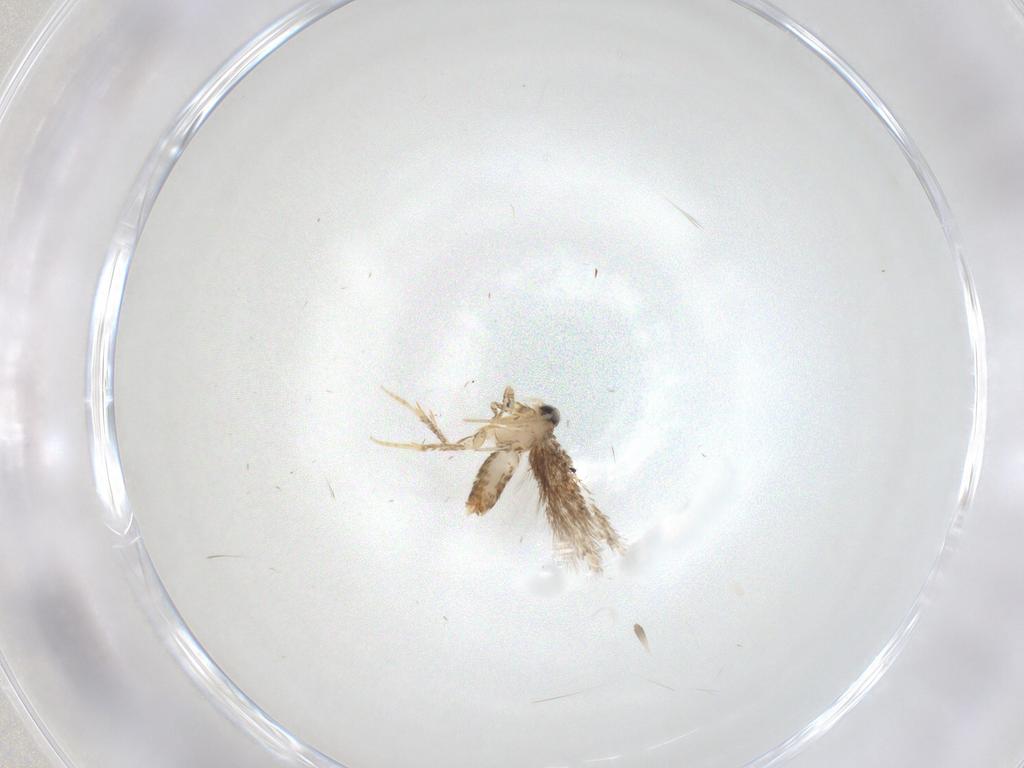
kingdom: Animalia
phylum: Arthropoda
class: Insecta
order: Lepidoptera
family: Nepticulidae
